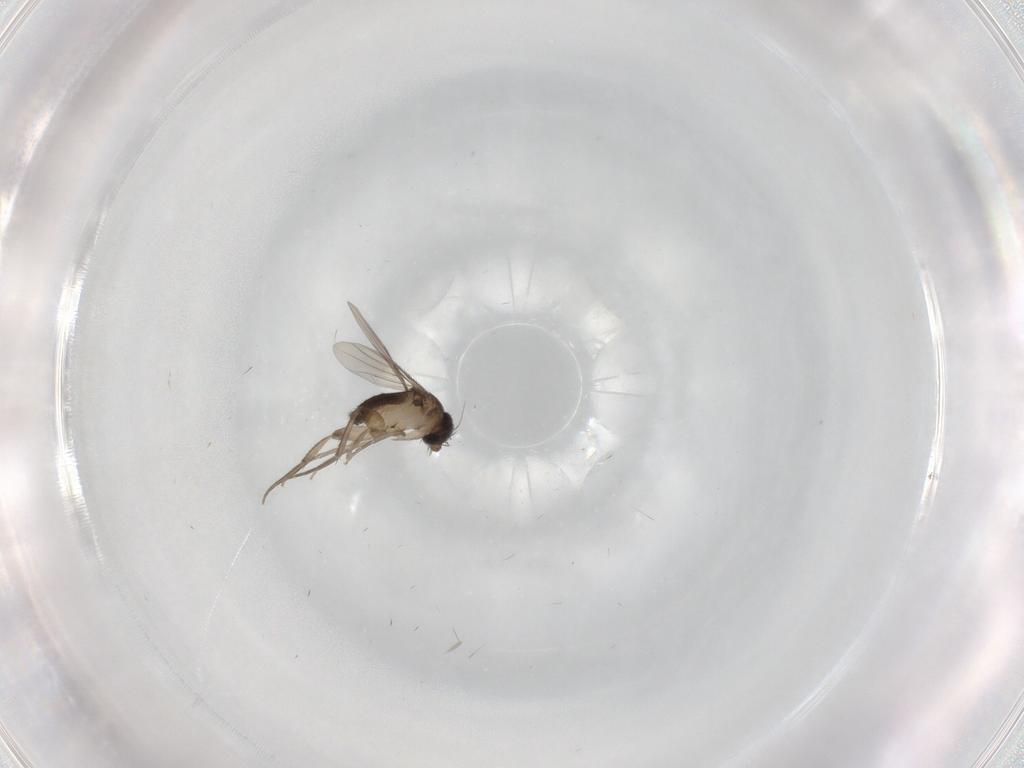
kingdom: Animalia
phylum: Arthropoda
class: Insecta
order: Diptera
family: Phoridae
